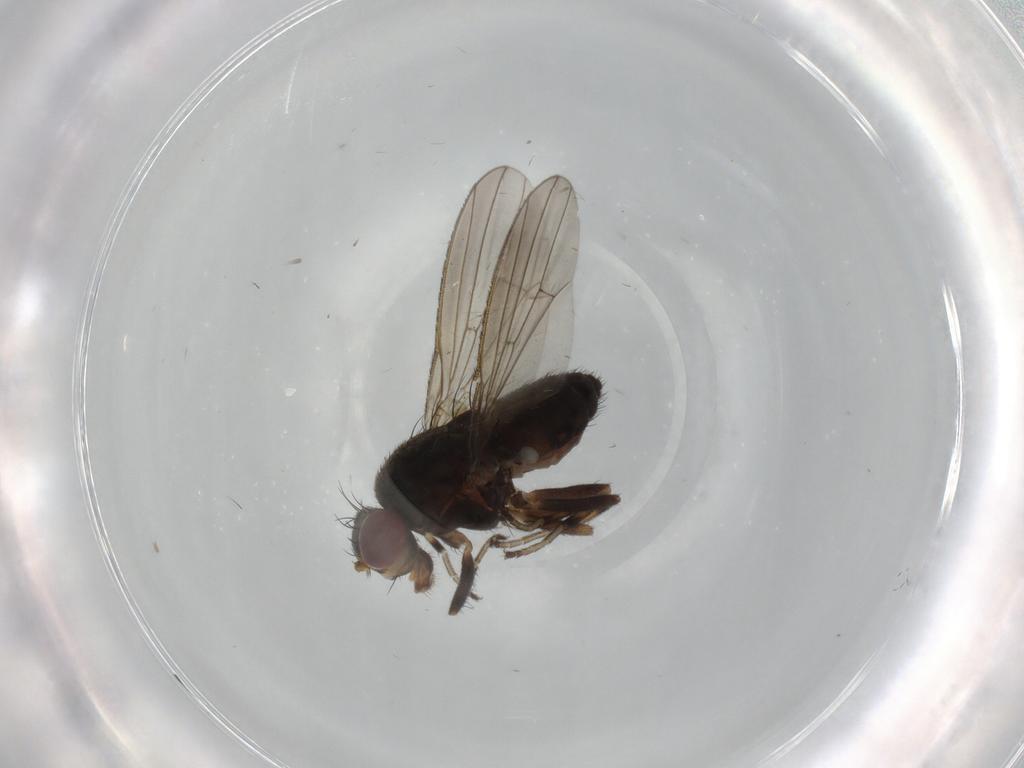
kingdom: Animalia
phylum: Arthropoda
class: Insecta
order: Diptera
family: Heleomyzidae
